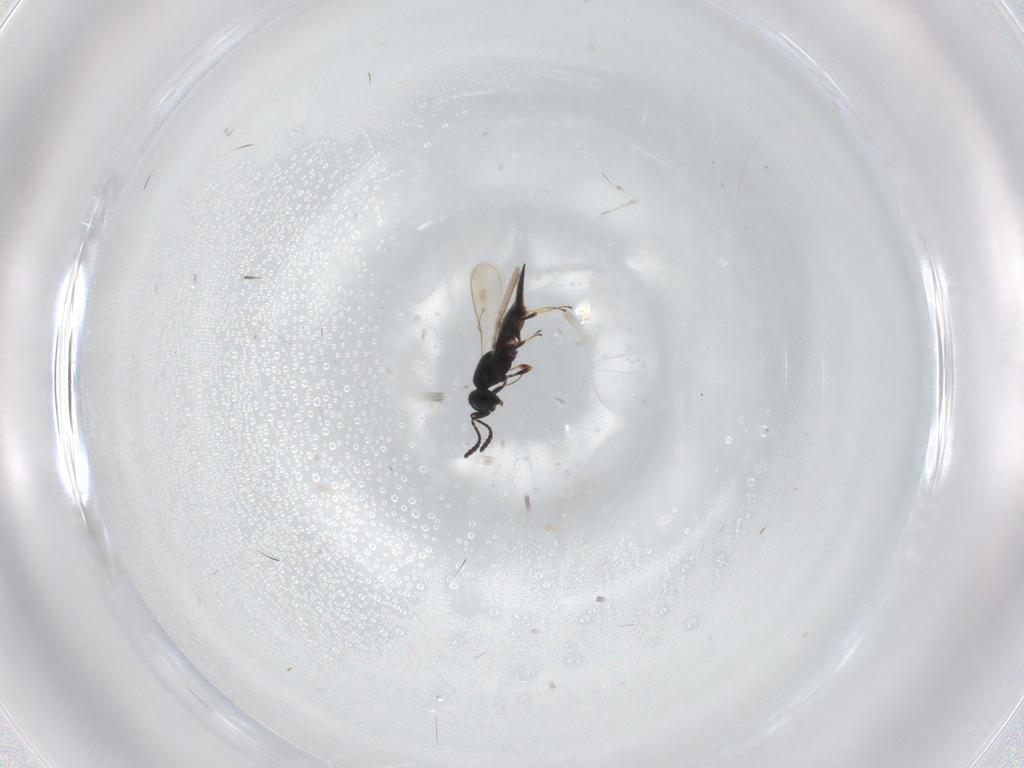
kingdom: Animalia
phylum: Arthropoda
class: Insecta
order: Hymenoptera
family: Scelionidae
